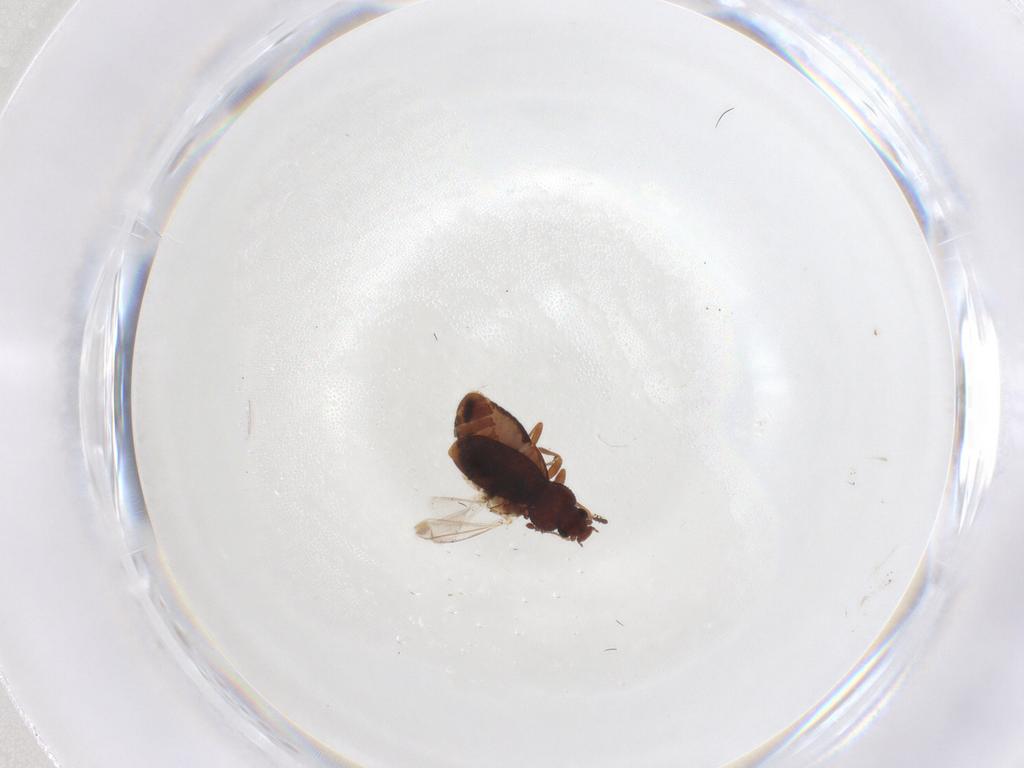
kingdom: Animalia
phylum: Arthropoda
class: Insecta
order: Coleoptera
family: Latridiidae
